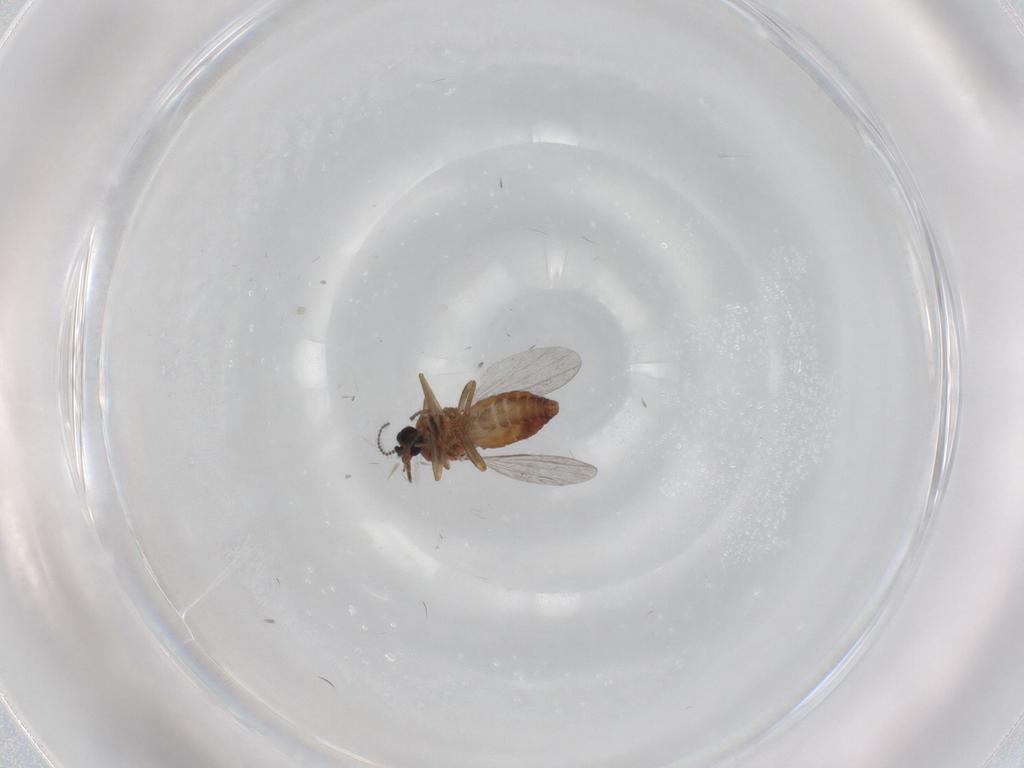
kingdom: Animalia
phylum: Arthropoda
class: Insecta
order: Diptera
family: Ceratopogonidae
